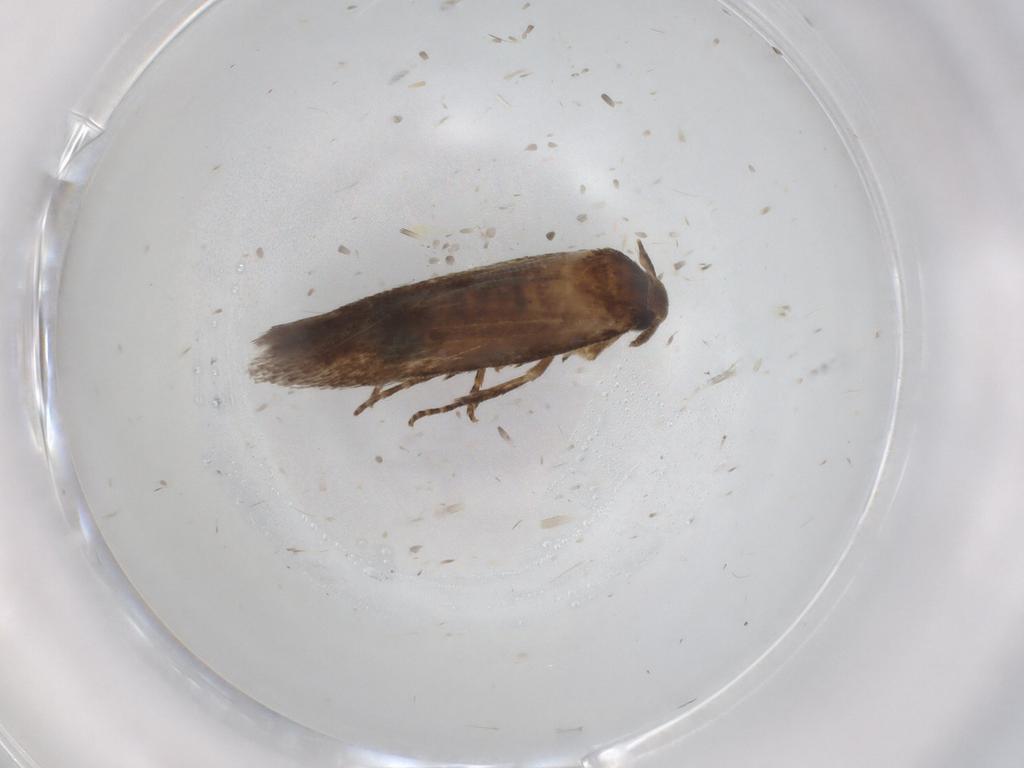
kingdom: Animalia
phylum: Arthropoda
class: Insecta
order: Lepidoptera
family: Cosmopterigidae
